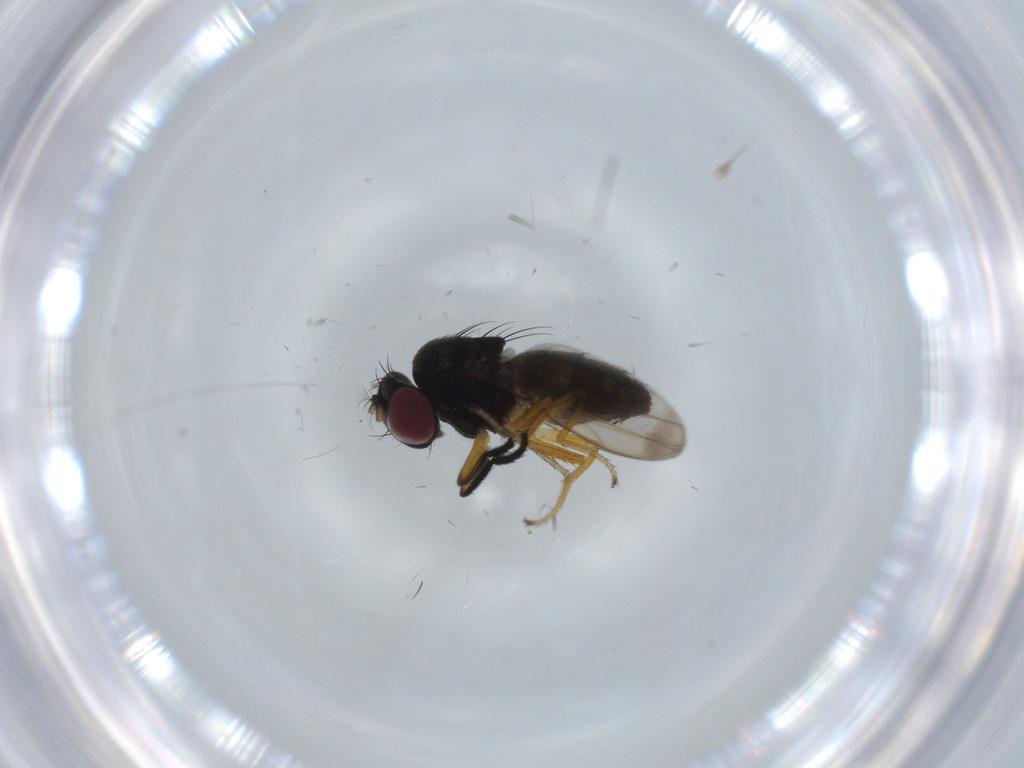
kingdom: Animalia
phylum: Arthropoda
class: Insecta
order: Diptera
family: Ephydridae
